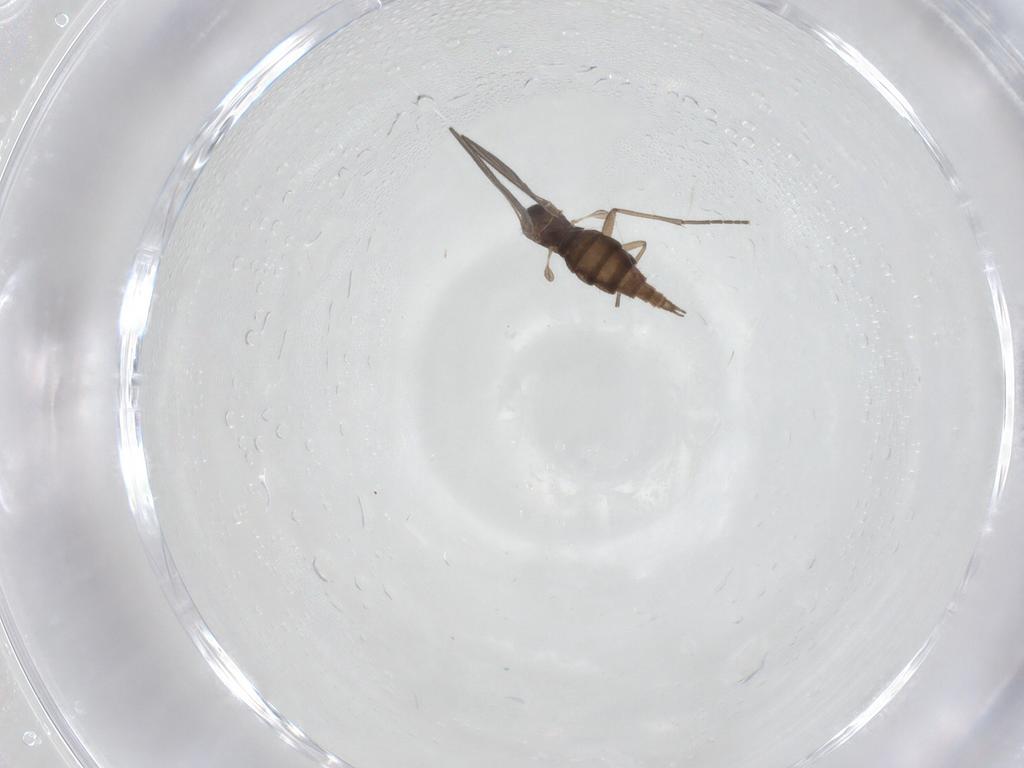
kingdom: Animalia
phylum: Arthropoda
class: Insecta
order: Diptera
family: Sciaridae
